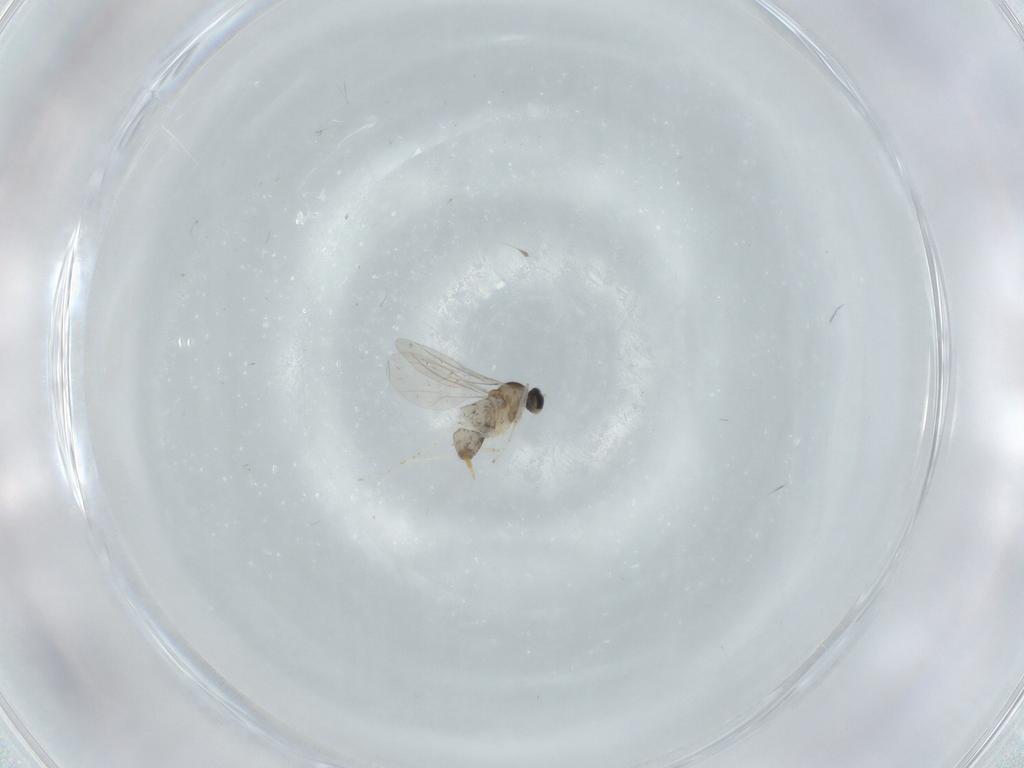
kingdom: Animalia
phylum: Arthropoda
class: Insecta
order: Diptera
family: Cecidomyiidae
